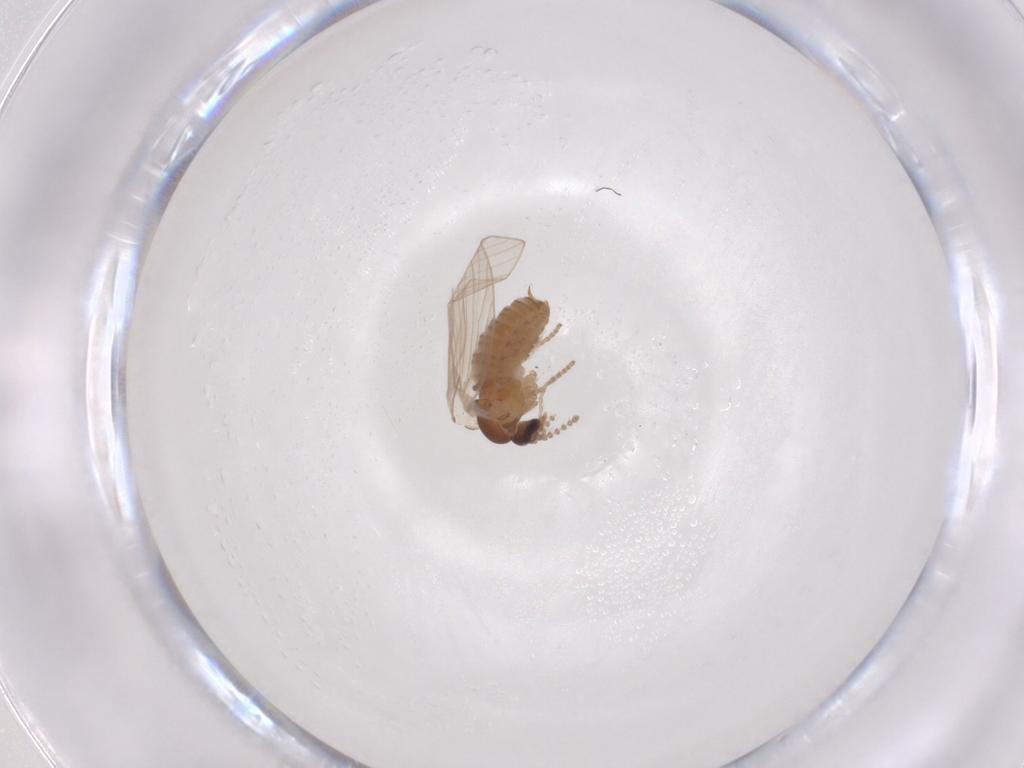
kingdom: Animalia
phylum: Arthropoda
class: Insecta
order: Diptera
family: Psychodidae
